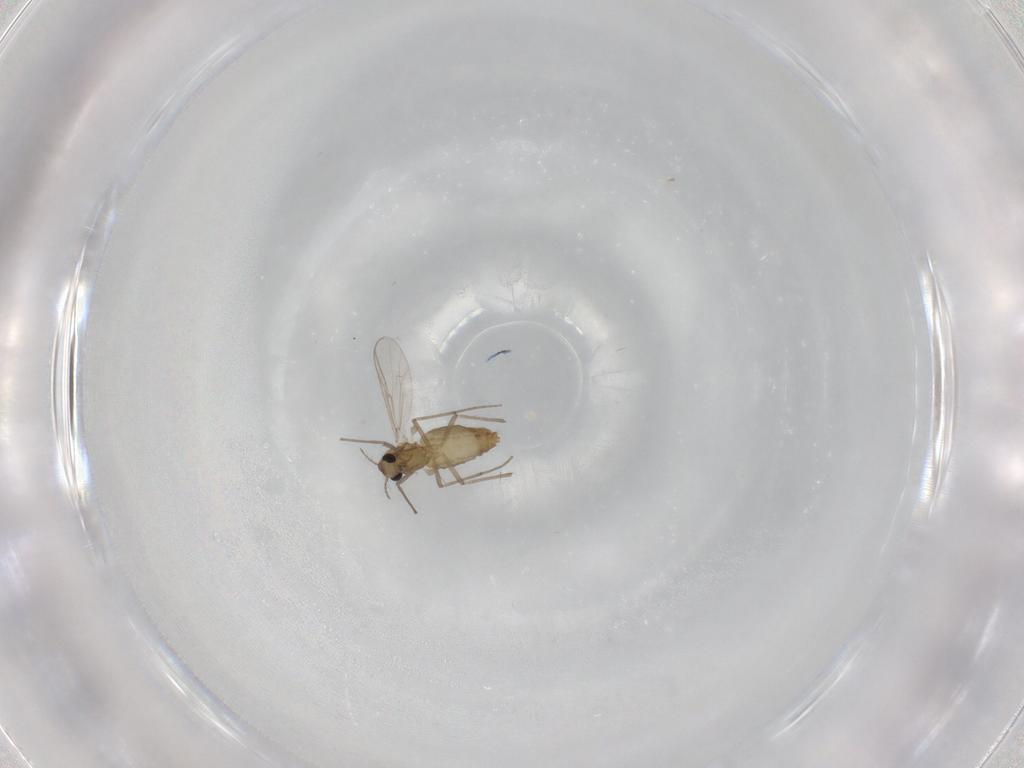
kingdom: Animalia
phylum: Arthropoda
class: Insecta
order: Diptera
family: Chironomidae
